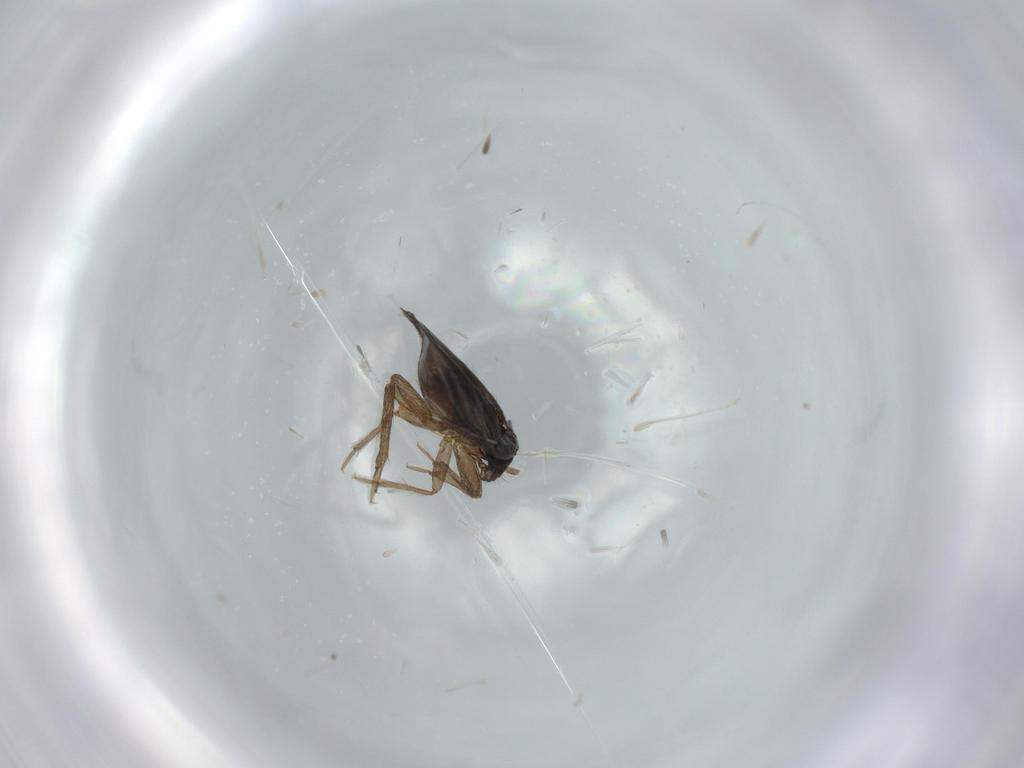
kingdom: Animalia
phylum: Arthropoda
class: Insecta
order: Hemiptera
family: Ceratocombidae
